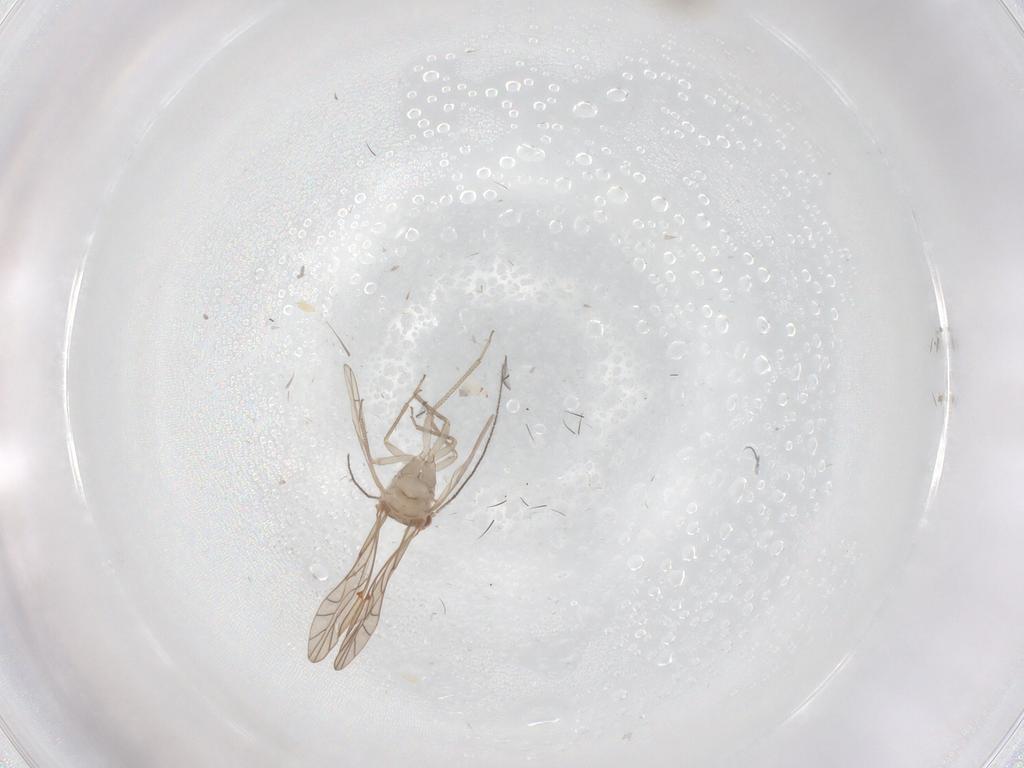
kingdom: Animalia
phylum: Arthropoda
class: Insecta
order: Psocodea
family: Lachesillidae
